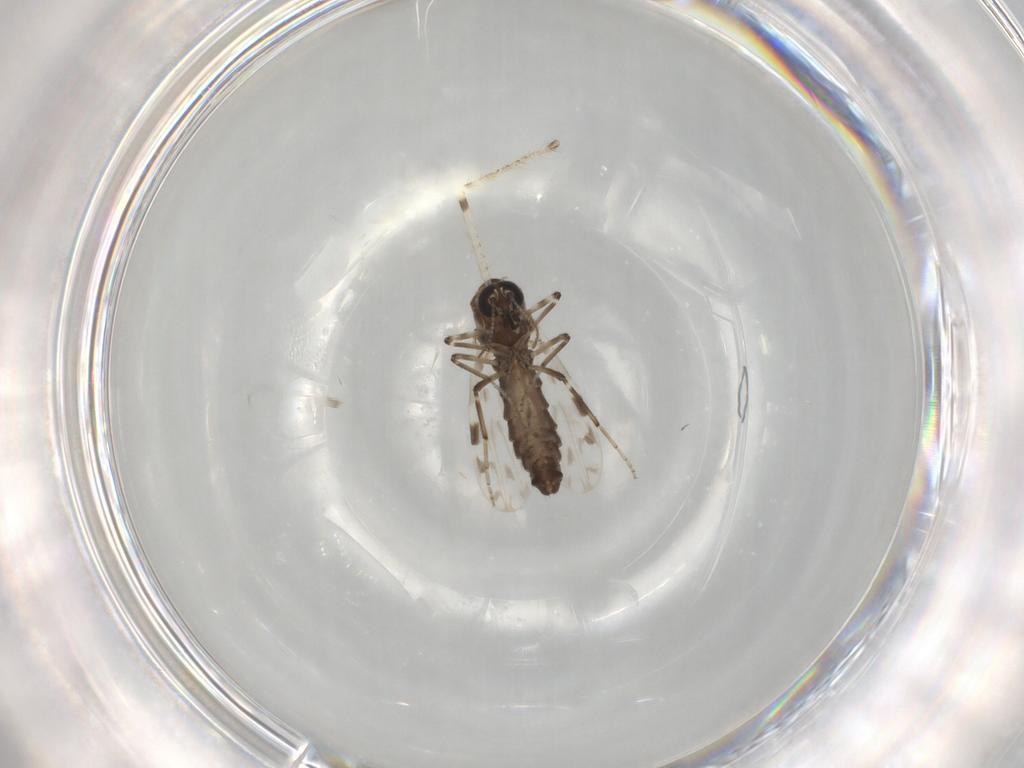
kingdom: Animalia
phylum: Arthropoda
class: Insecta
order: Diptera
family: Ceratopogonidae
